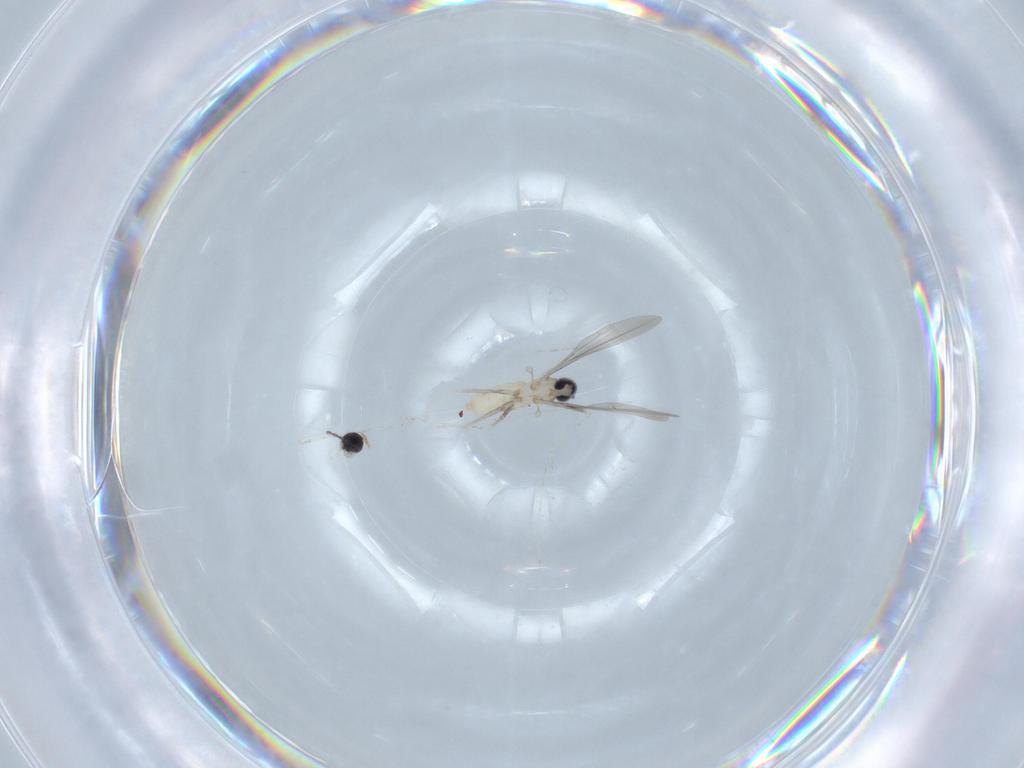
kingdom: Animalia
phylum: Arthropoda
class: Insecta
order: Diptera
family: Cecidomyiidae
